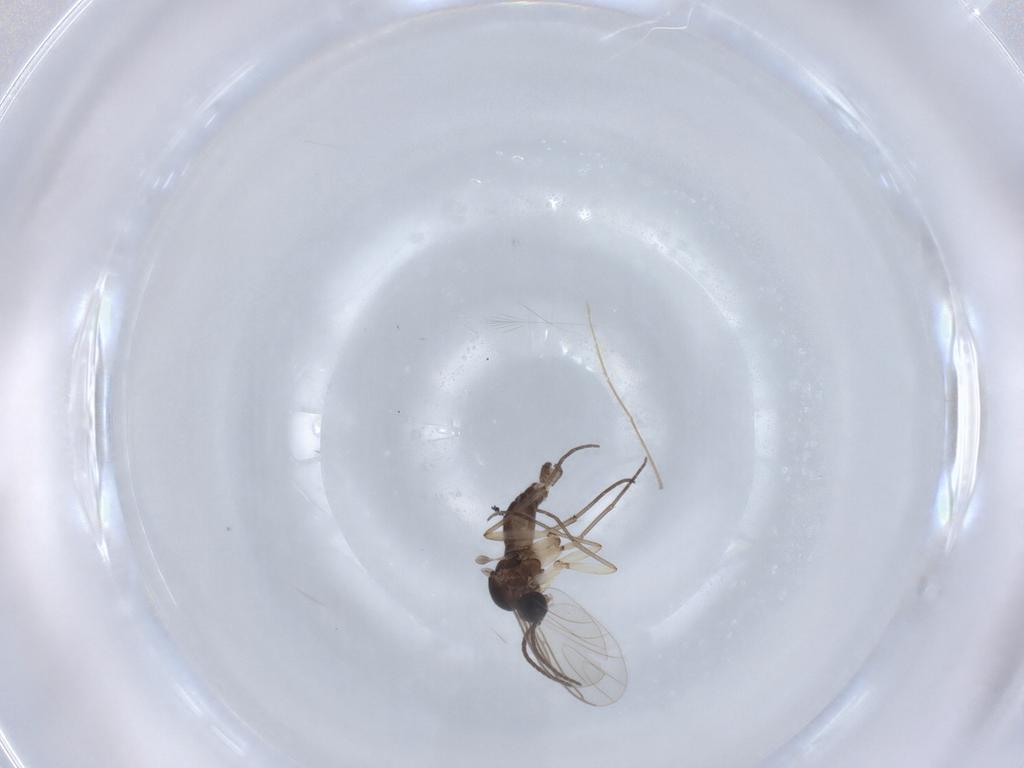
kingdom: Animalia
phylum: Arthropoda
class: Insecta
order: Diptera
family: Sciaridae
